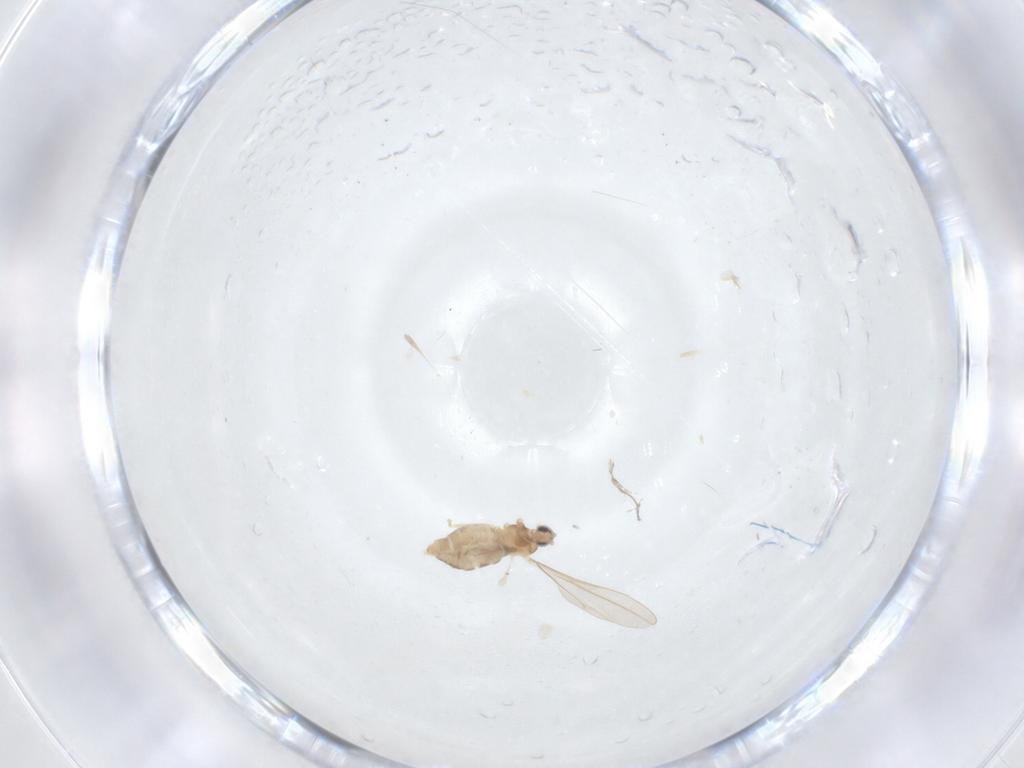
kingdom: Animalia
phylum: Arthropoda
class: Insecta
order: Diptera
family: Cecidomyiidae
